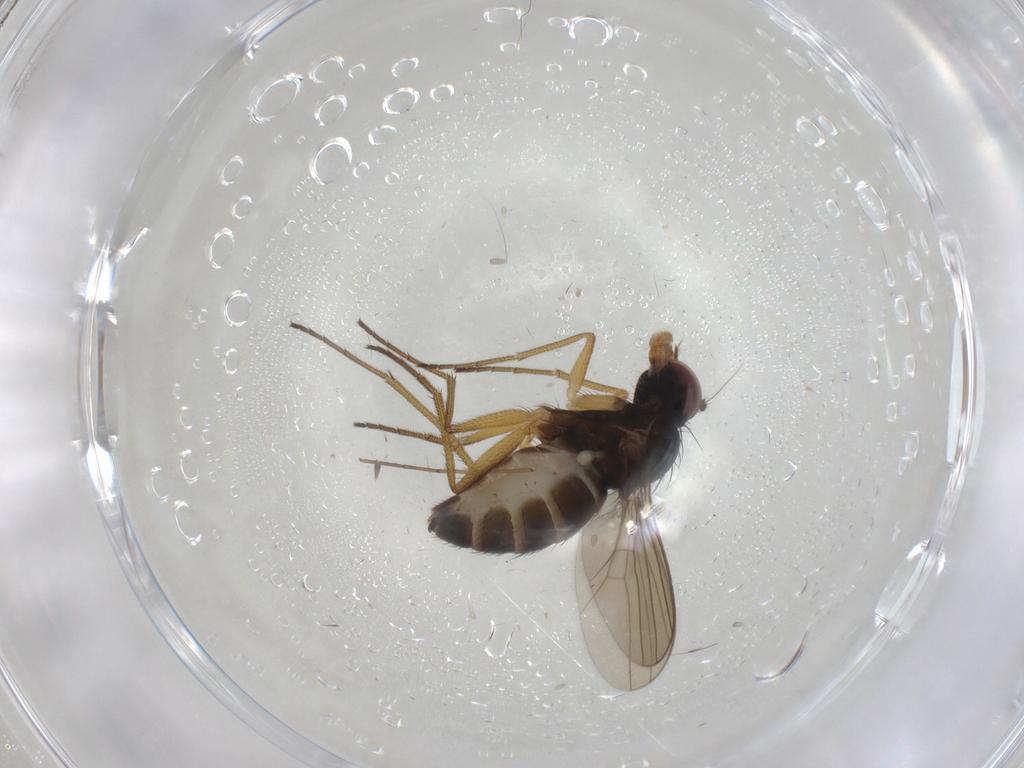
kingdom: Animalia
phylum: Arthropoda
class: Insecta
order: Diptera
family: Dolichopodidae
